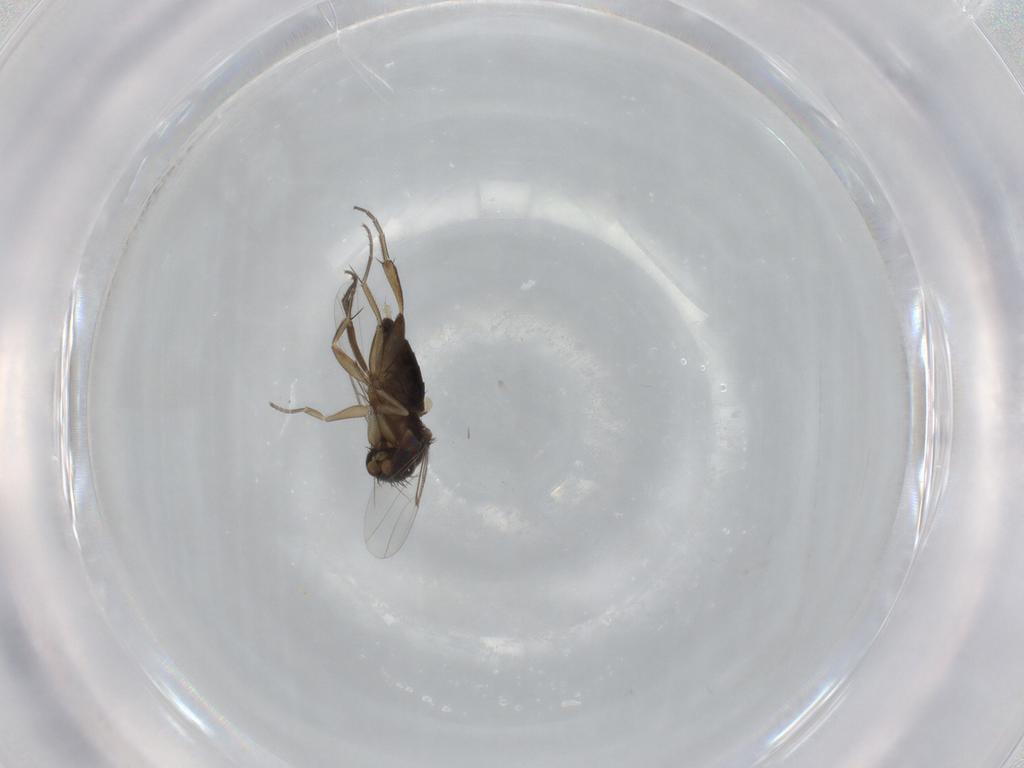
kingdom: Animalia
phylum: Arthropoda
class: Insecta
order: Diptera
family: Phoridae
